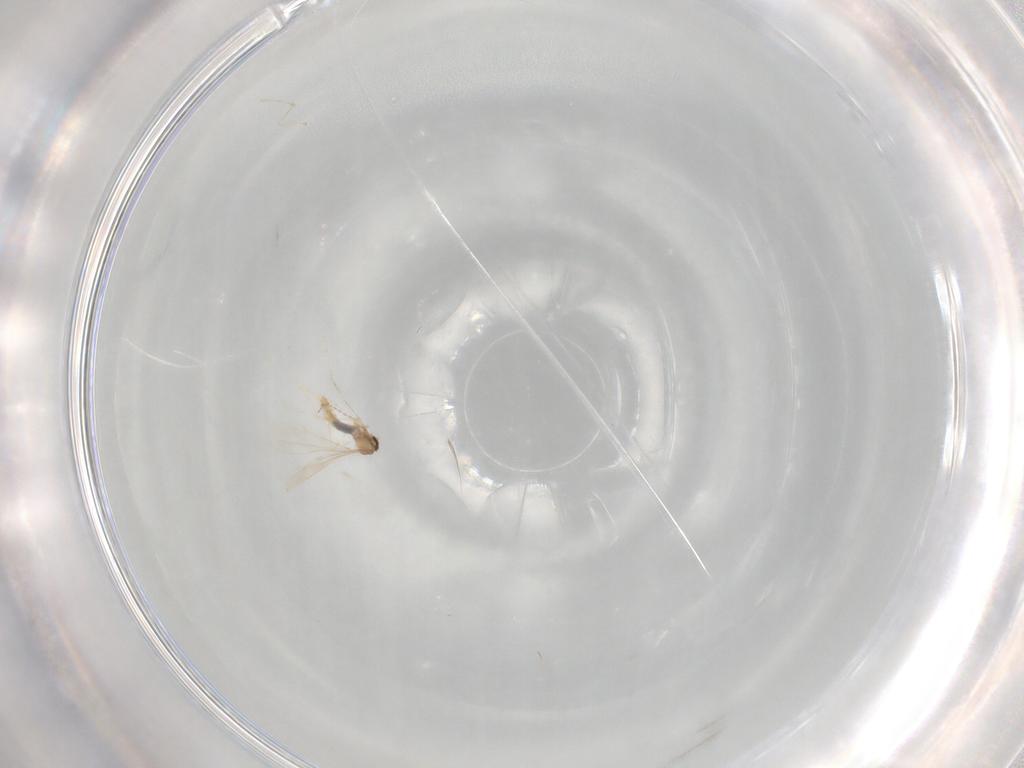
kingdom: Animalia
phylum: Arthropoda
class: Insecta
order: Diptera
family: Cecidomyiidae
